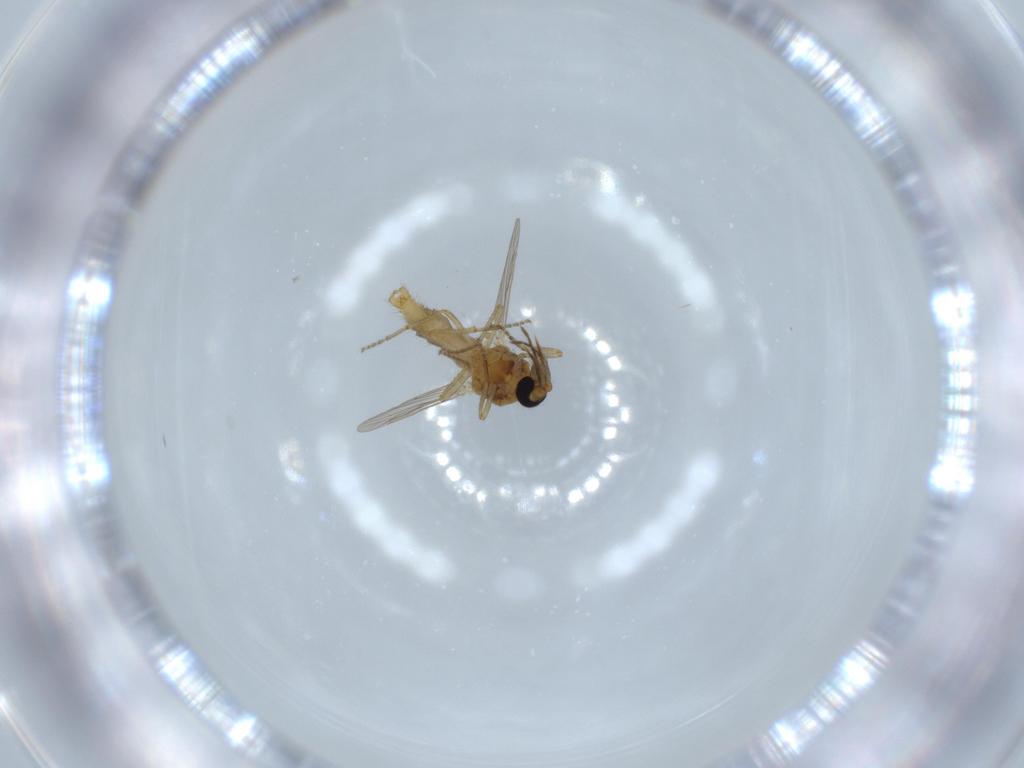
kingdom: Animalia
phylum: Arthropoda
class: Insecta
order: Diptera
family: Ceratopogonidae
